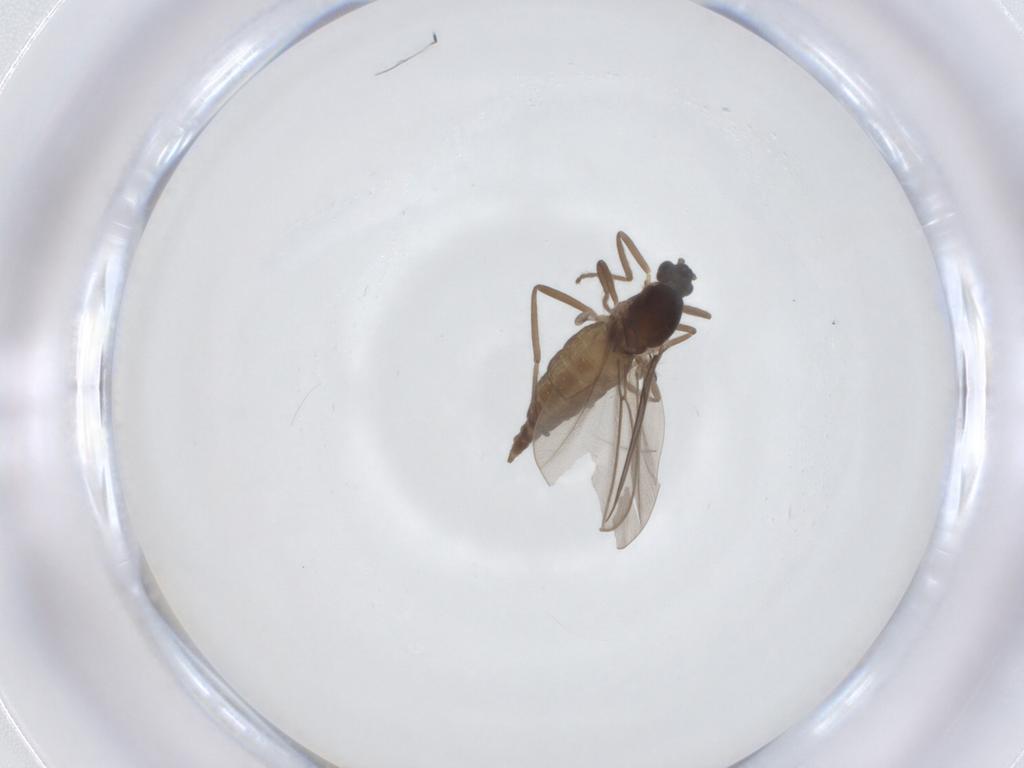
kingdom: Animalia
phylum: Arthropoda
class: Insecta
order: Diptera
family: Cecidomyiidae
